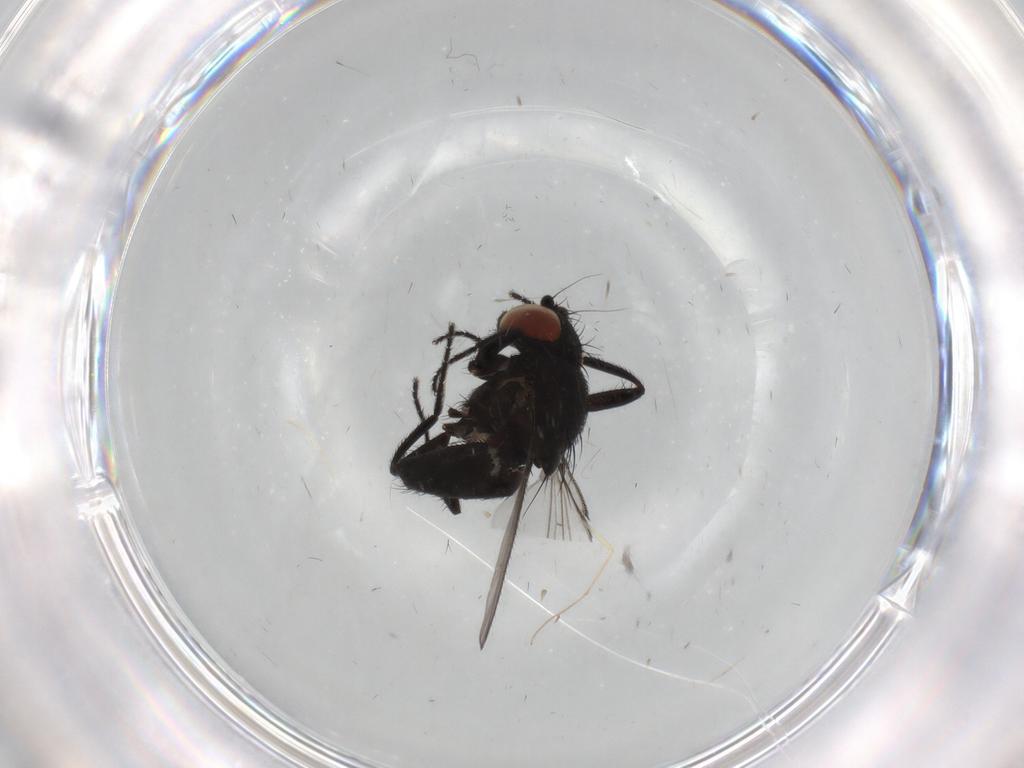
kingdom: Animalia
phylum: Arthropoda
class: Insecta
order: Diptera
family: Milichiidae
